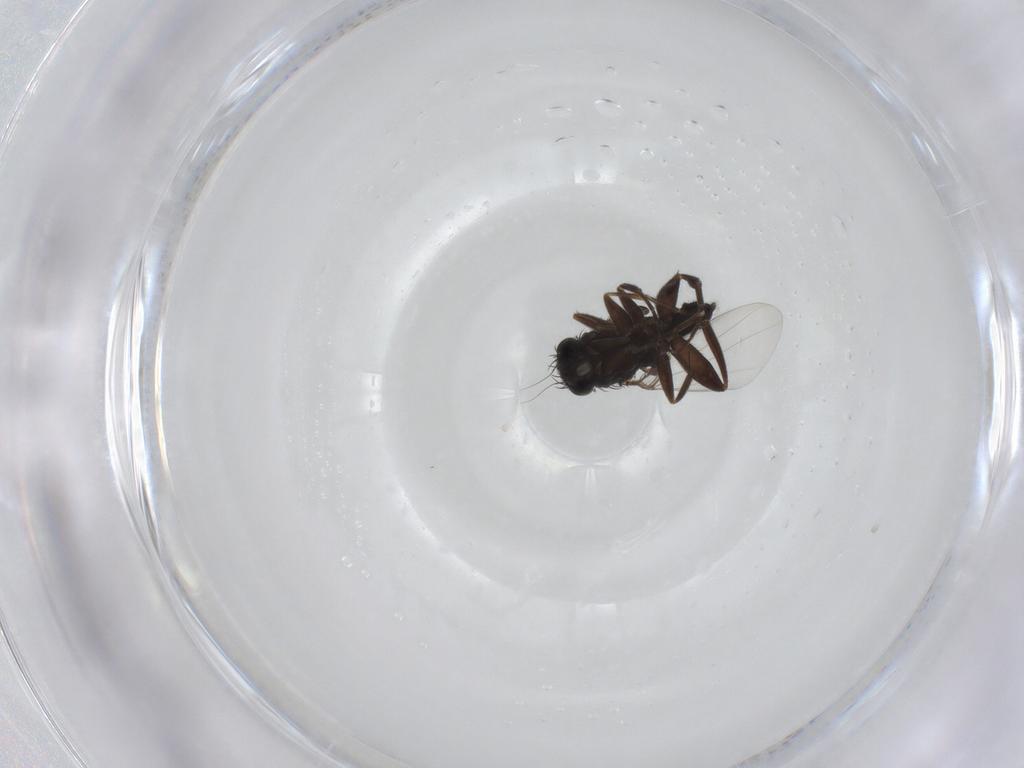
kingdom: Animalia
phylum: Arthropoda
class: Insecta
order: Diptera
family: Phoridae
